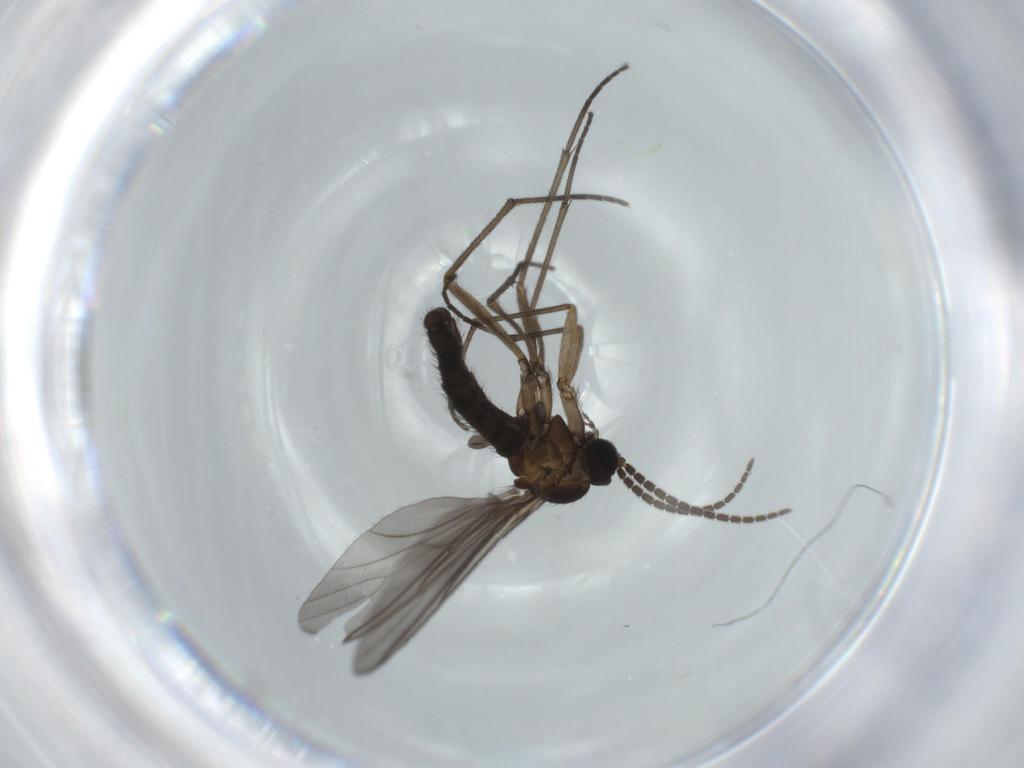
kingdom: Animalia
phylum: Arthropoda
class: Insecta
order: Diptera
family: Sciaridae
